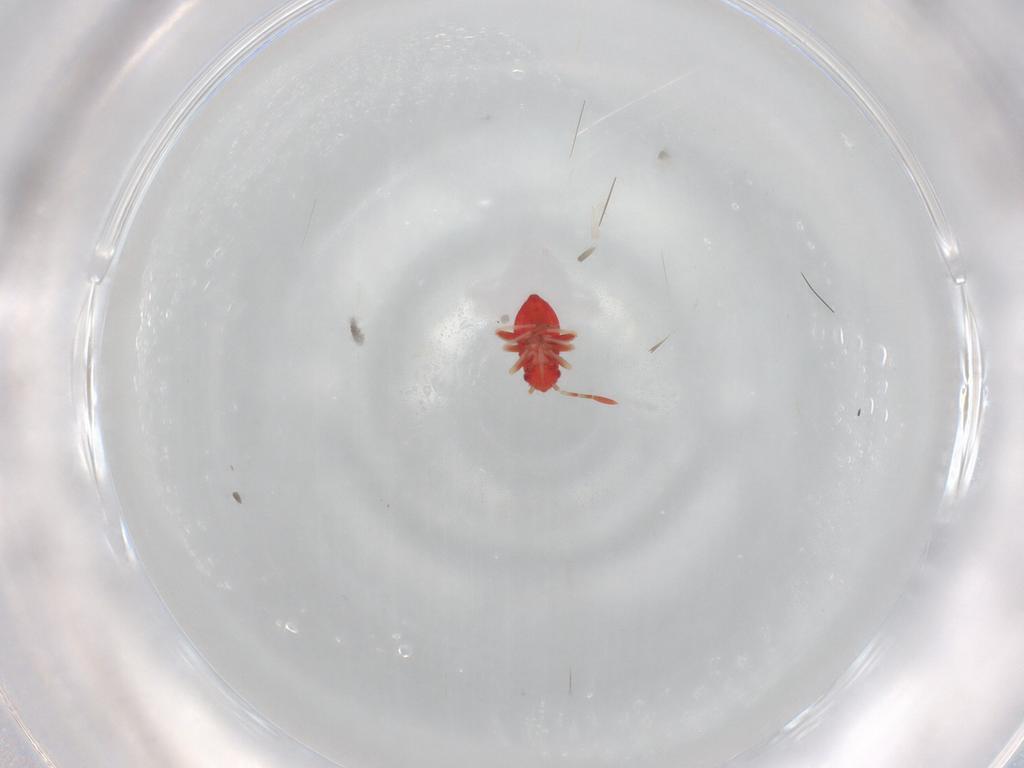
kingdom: Animalia
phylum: Arthropoda
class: Insecta
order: Hemiptera
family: Miridae
